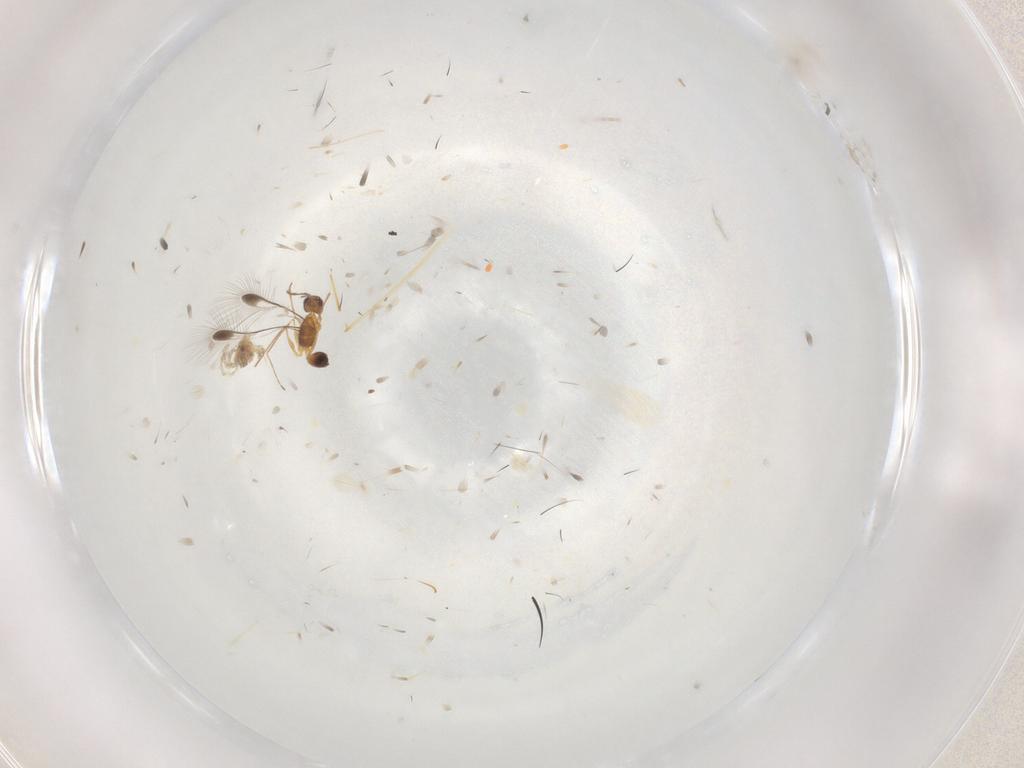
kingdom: Animalia
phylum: Arthropoda
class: Insecta
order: Hymenoptera
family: Mymaridae
